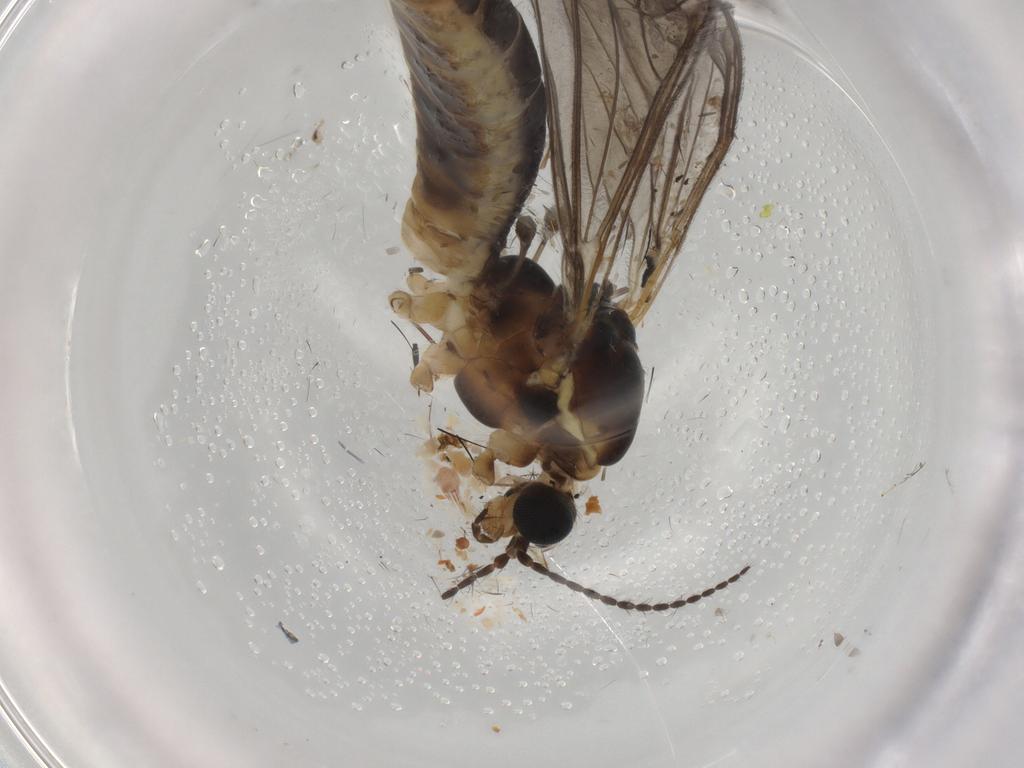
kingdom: Animalia
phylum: Arthropoda
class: Insecta
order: Diptera
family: Limoniidae
